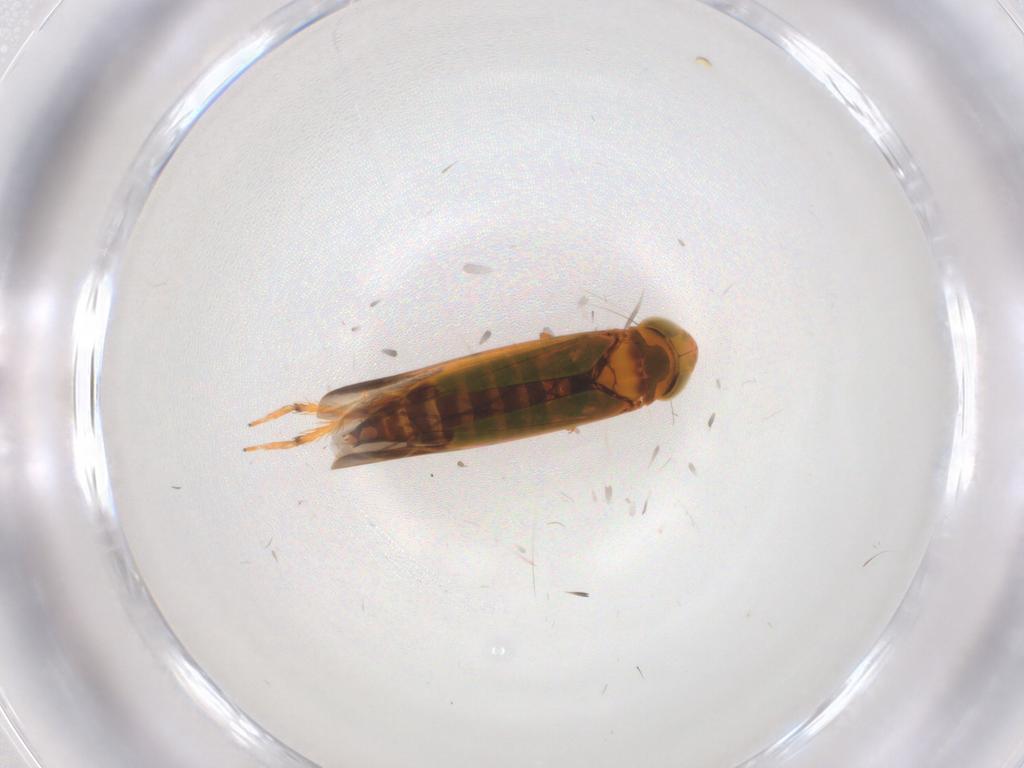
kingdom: Animalia
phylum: Arthropoda
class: Insecta
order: Hemiptera
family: Cicadellidae
